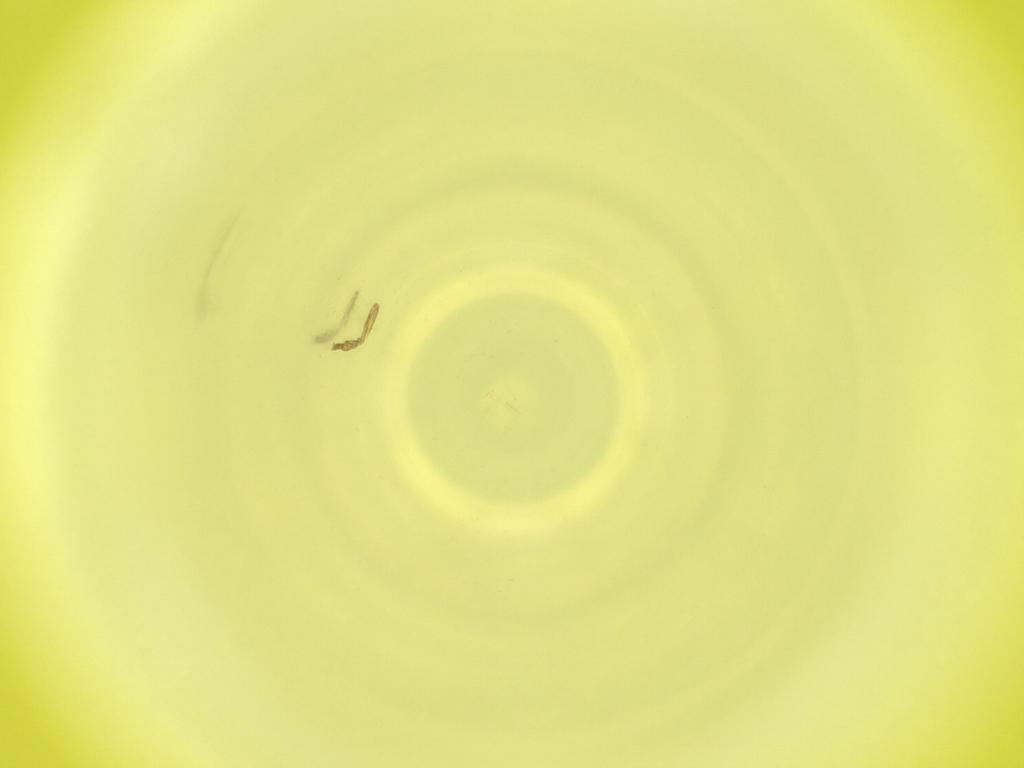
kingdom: Animalia
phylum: Arthropoda
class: Insecta
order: Diptera
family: Cecidomyiidae
